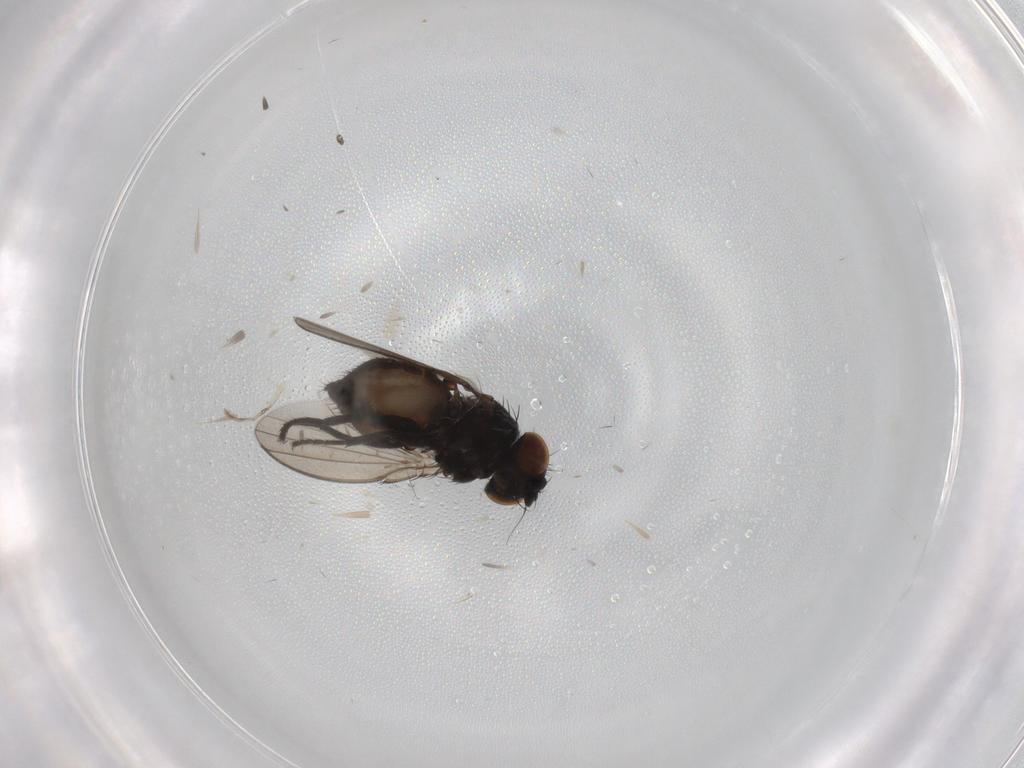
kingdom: Animalia
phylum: Arthropoda
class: Insecta
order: Diptera
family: Milichiidae
